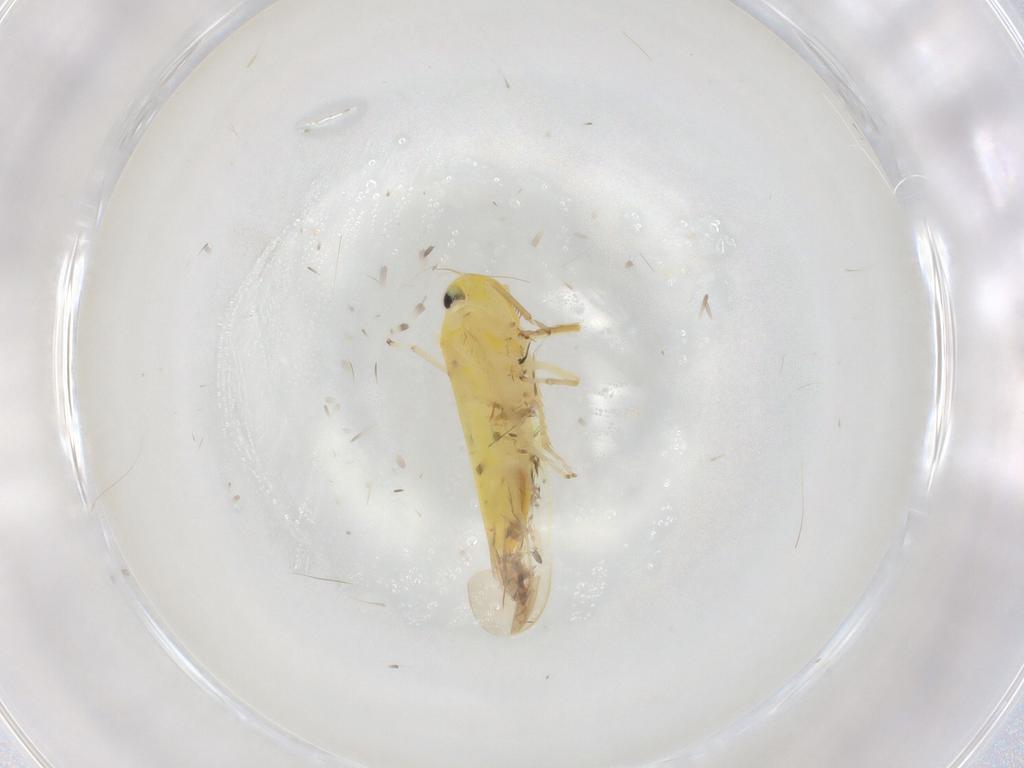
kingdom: Animalia
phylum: Arthropoda
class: Insecta
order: Hemiptera
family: Cicadellidae
